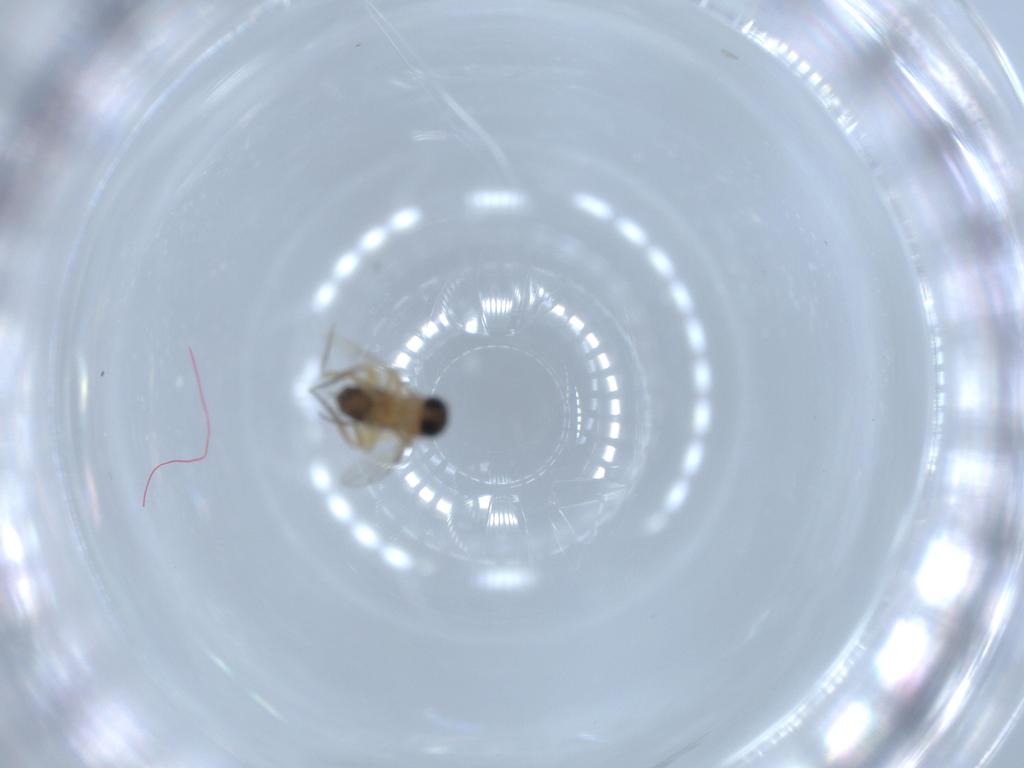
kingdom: Animalia
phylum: Arthropoda
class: Insecta
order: Diptera
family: Phoridae
